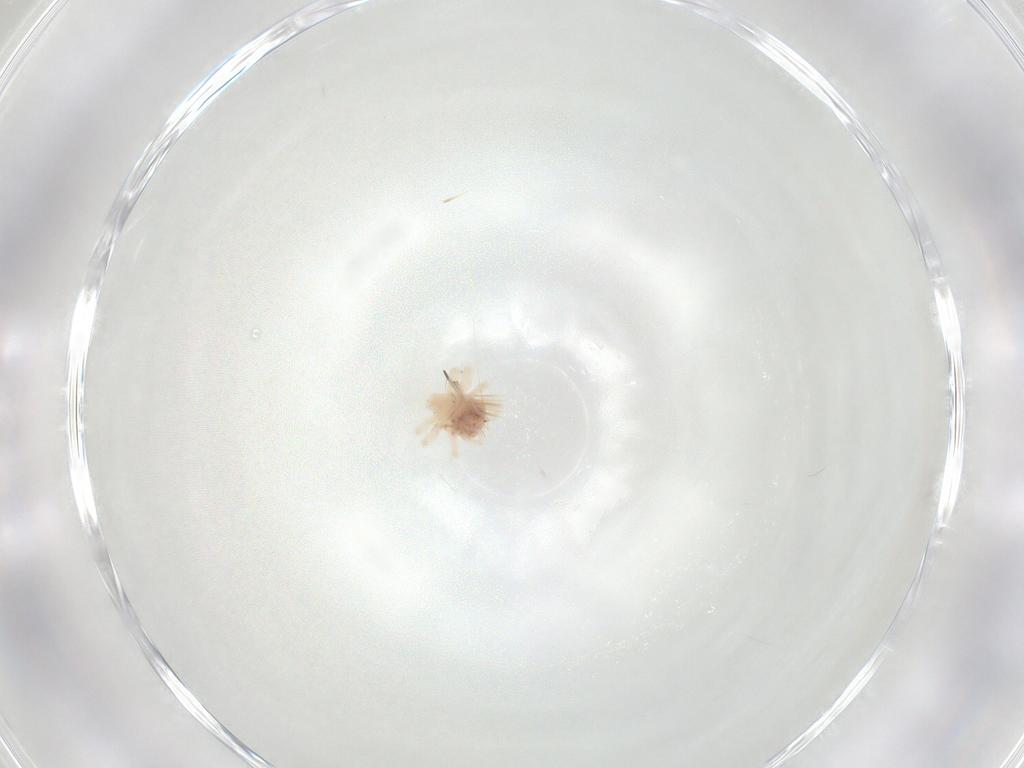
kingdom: Animalia
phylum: Arthropoda
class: Arachnida
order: Trombidiformes
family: Anystidae
